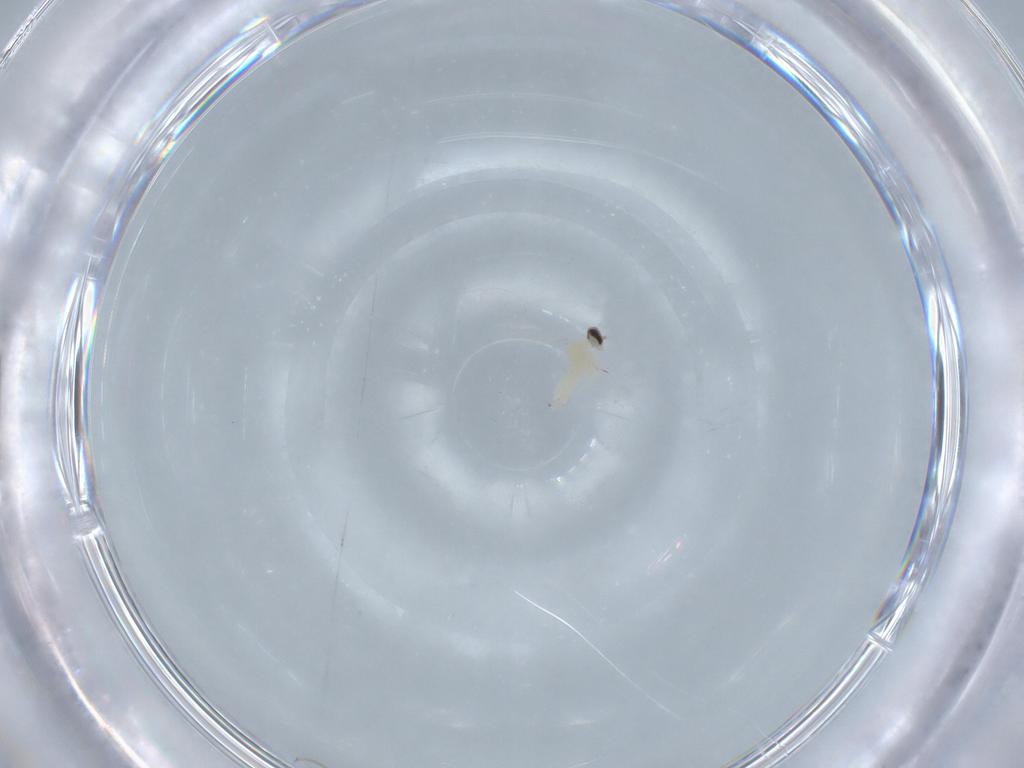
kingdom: Animalia
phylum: Arthropoda
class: Insecta
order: Diptera
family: Cecidomyiidae
